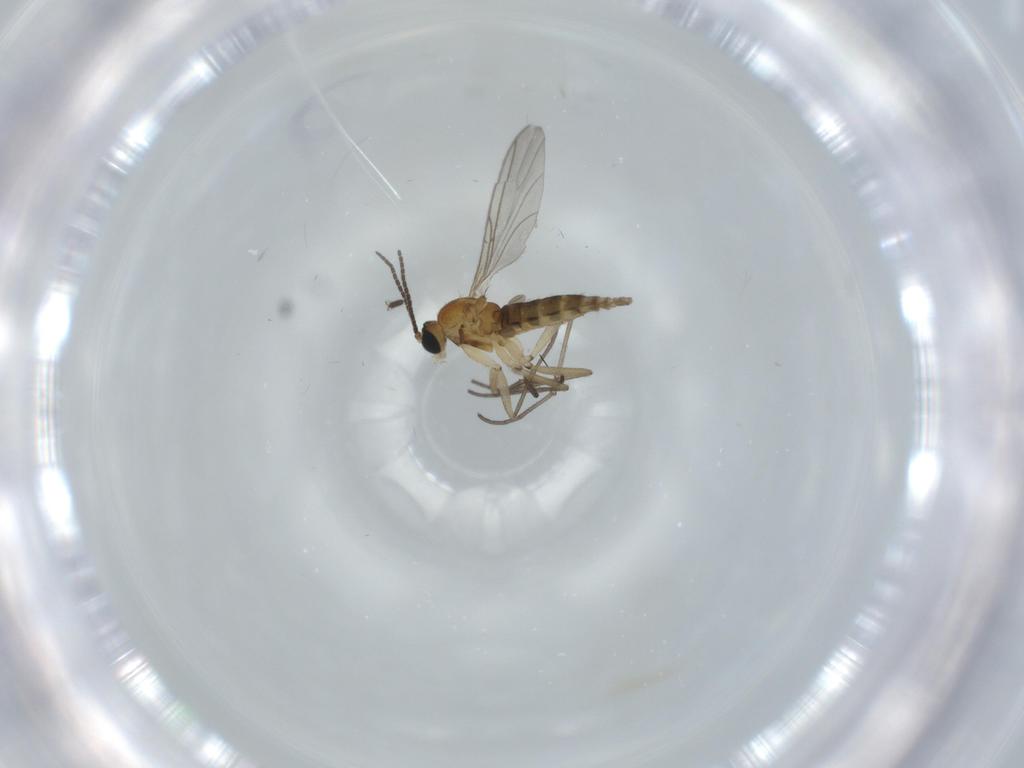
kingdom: Animalia
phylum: Arthropoda
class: Insecta
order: Diptera
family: Sciaridae
